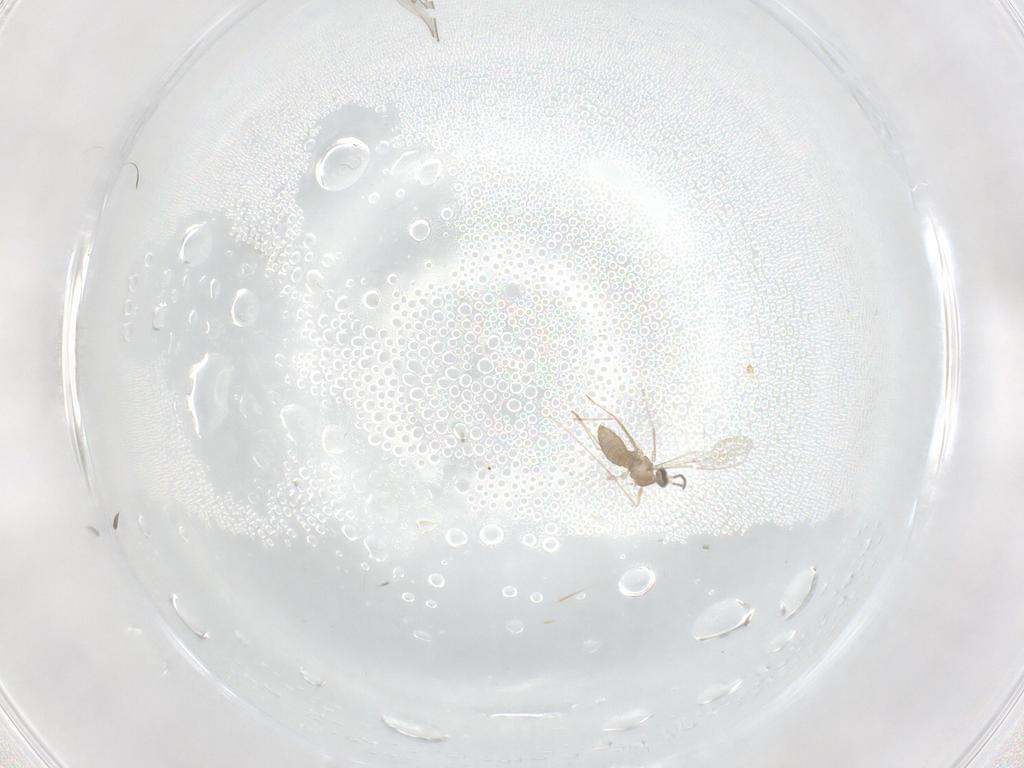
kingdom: Animalia
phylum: Arthropoda
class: Insecta
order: Diptera
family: Cecidomyiidae
